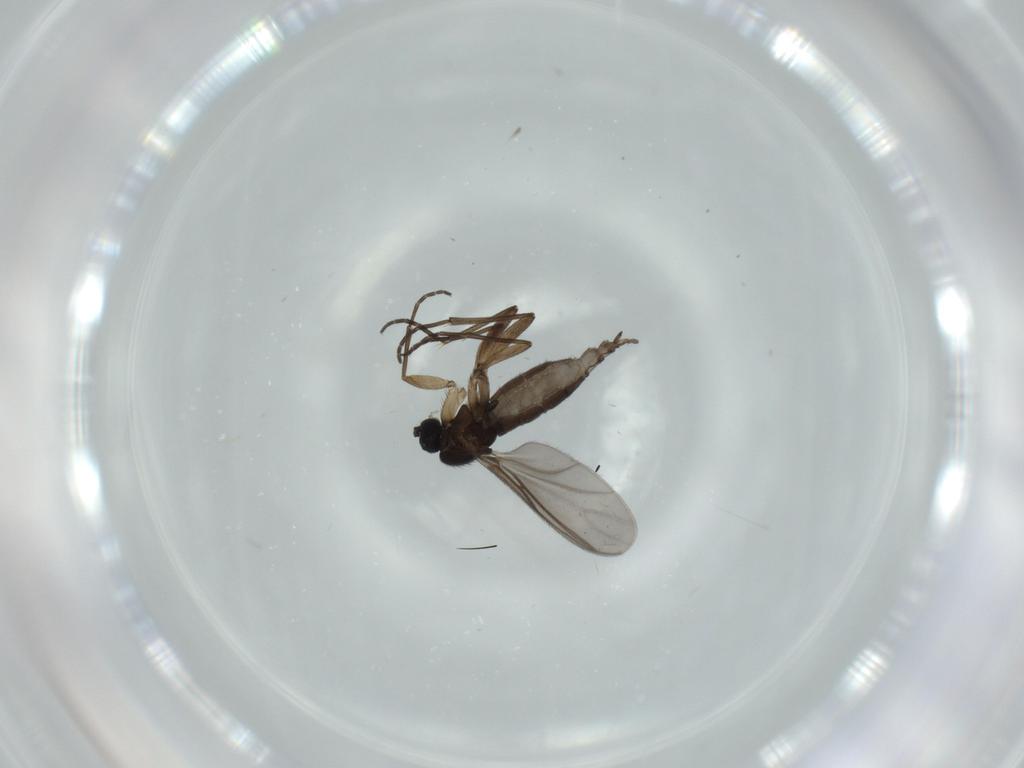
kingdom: Animalia
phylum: Arthropoda
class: Insecta
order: Diptera
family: Sciaridae
